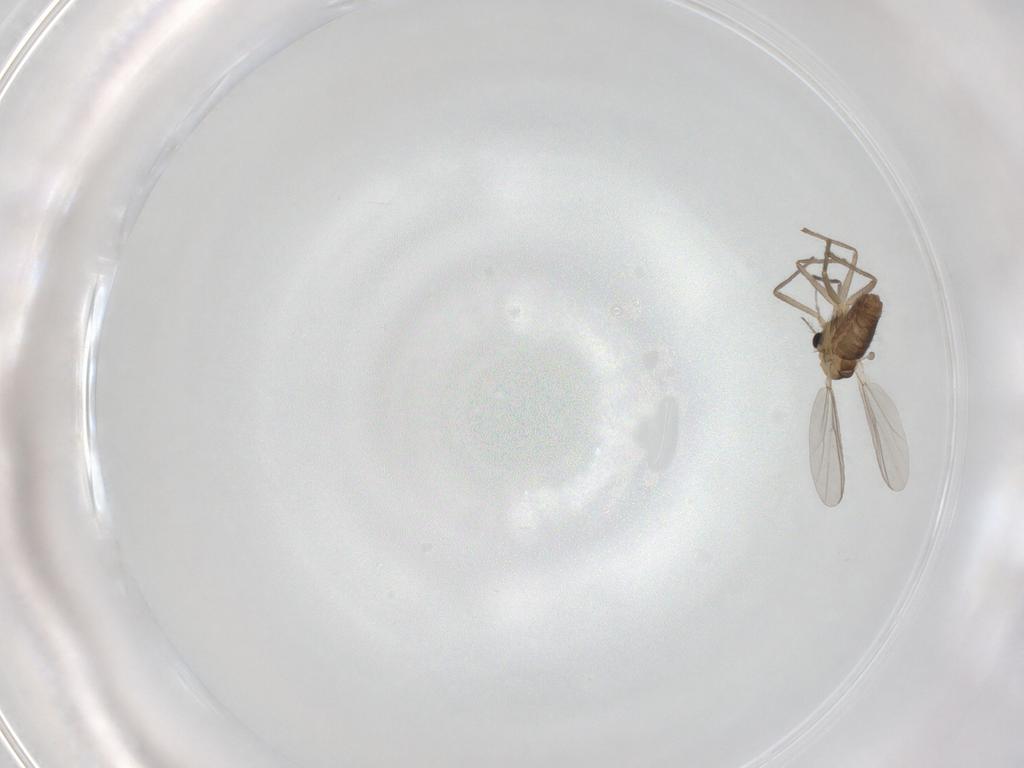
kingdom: Animalia
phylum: Arthropoda
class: Insecta
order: Diptera
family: Chironomidae
